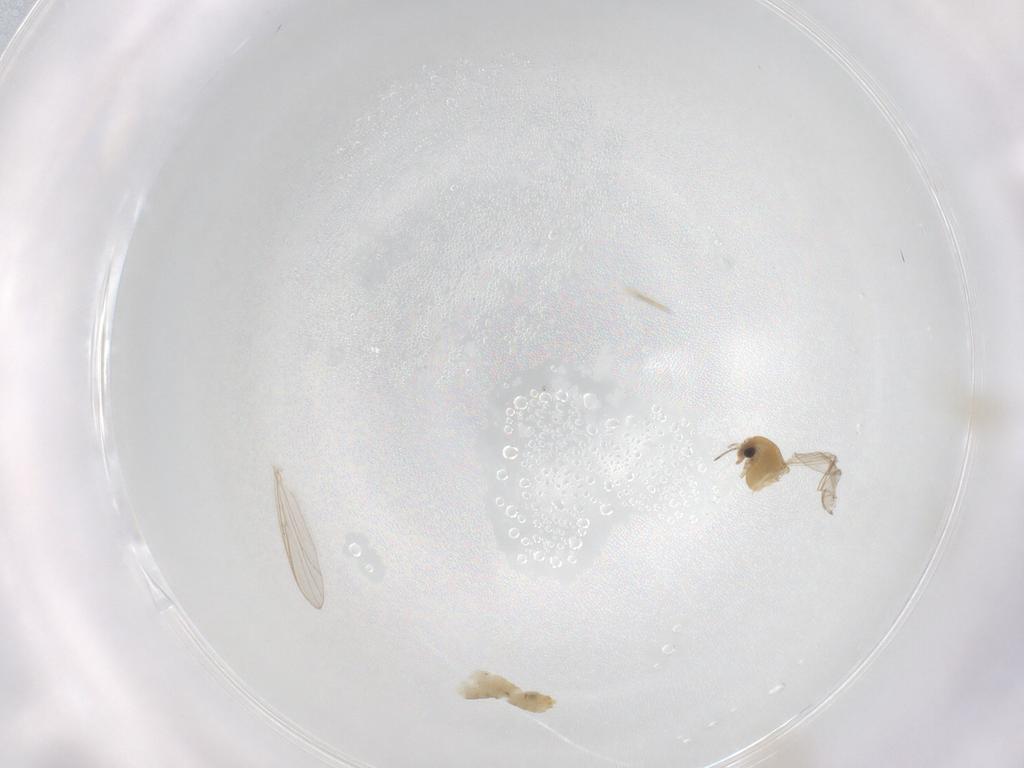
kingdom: Animalia
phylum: Arthropoda
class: Insecta
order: Diptera
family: Chironomidae
